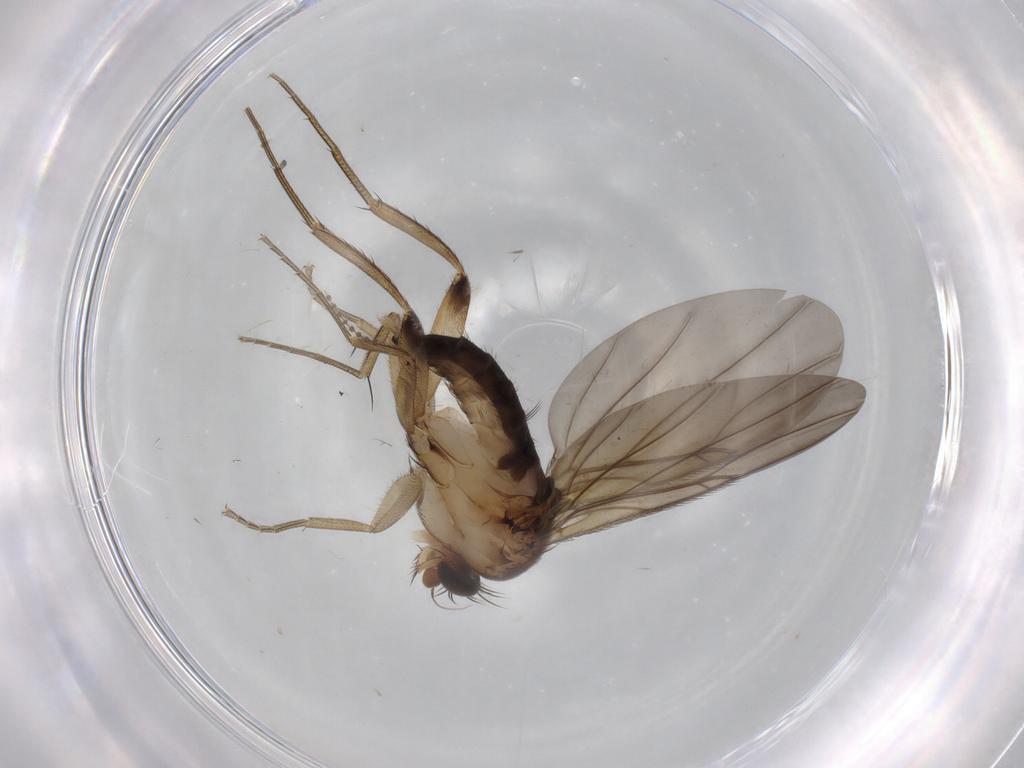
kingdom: Animalia
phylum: Arthropoda
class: Insecta
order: Diptera
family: Phoridae
